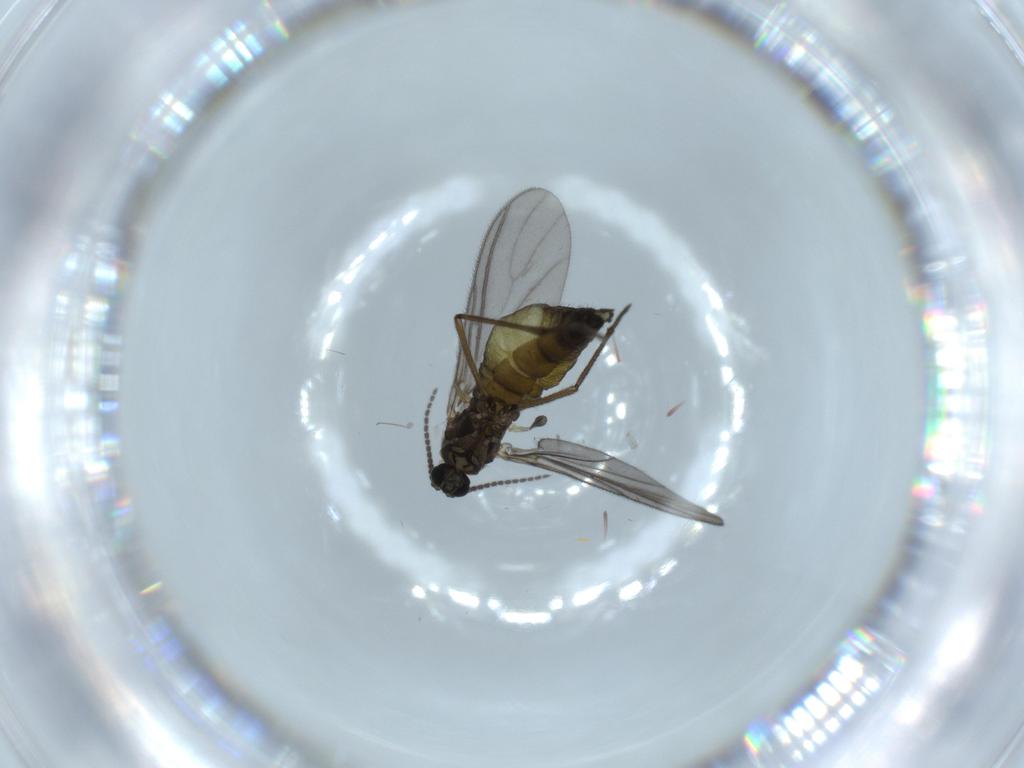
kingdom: Animalia
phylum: Arthropoda
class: Insecta
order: Diptera
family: Sciaridae
